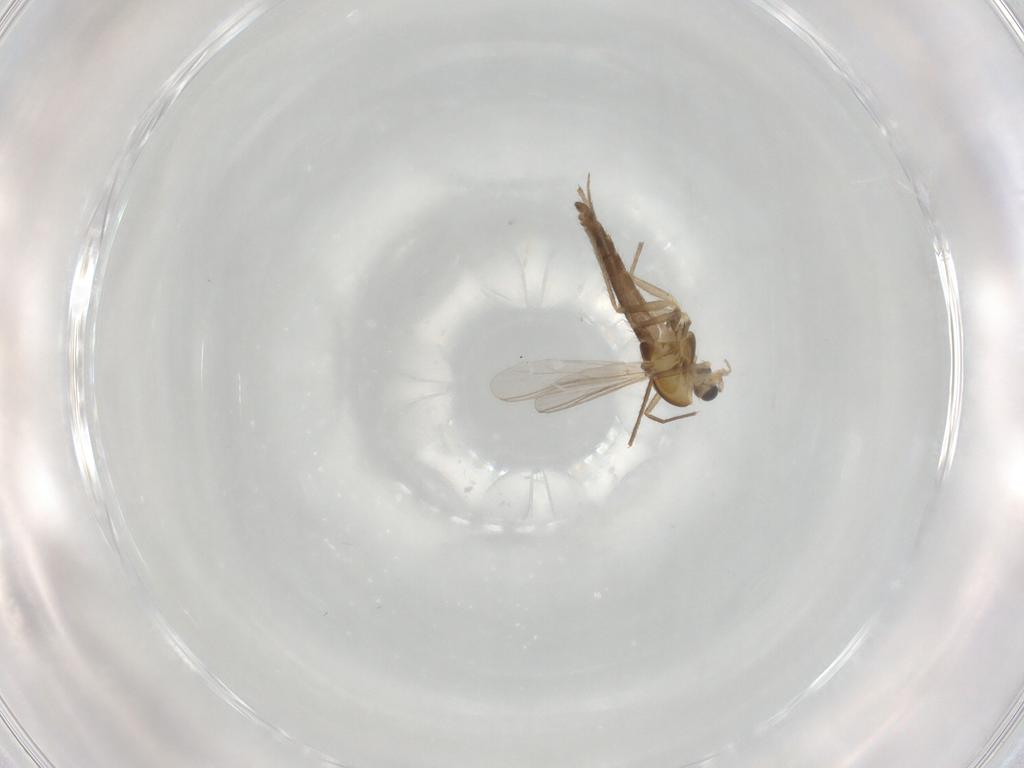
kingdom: Animalia
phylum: Arthropoda
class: Insecta
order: Diptera
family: Chironomidae
